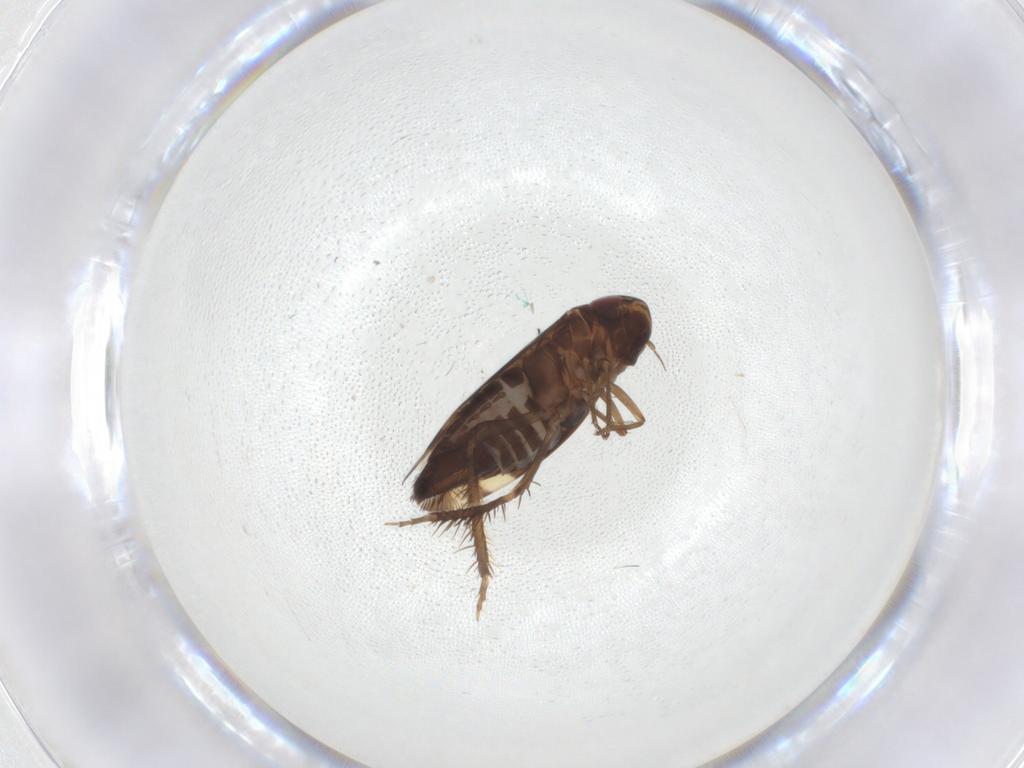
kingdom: Animalia
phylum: Arthropoda
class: Insecta
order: Hemiptera
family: Cicadellidae
